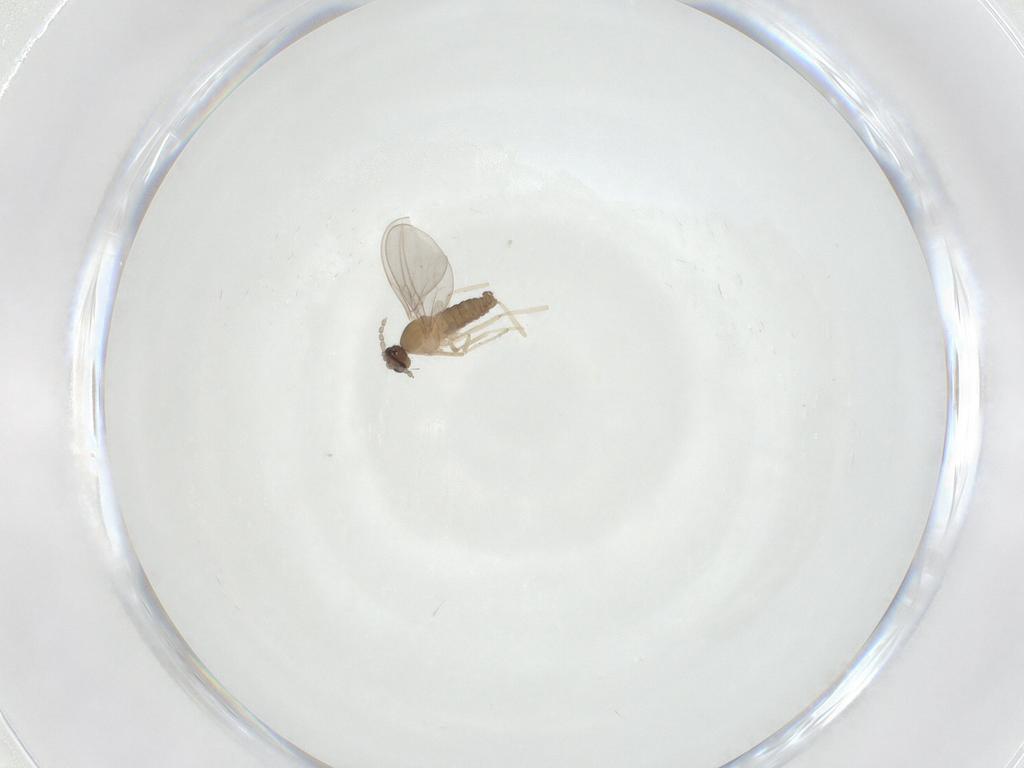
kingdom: Animalia
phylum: Arthropoda
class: Insecta
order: Diptera
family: Cecidomyiidae
